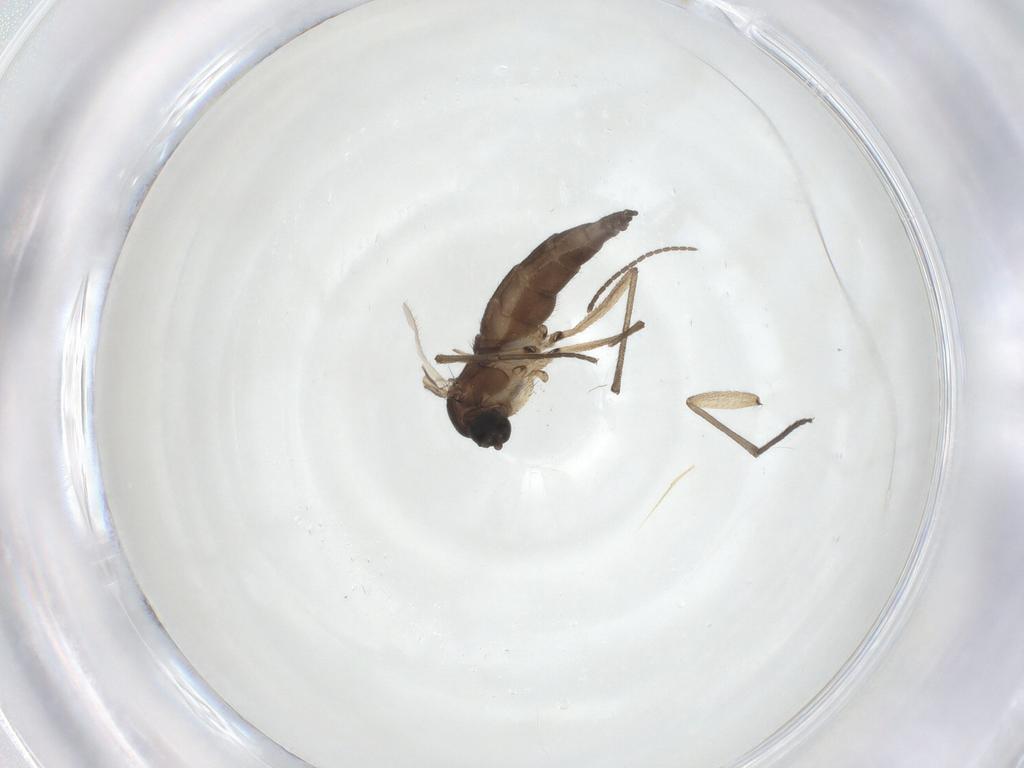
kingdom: Animalia
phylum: Arthropoda
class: Insecta
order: Diptera
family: Sciaridae
